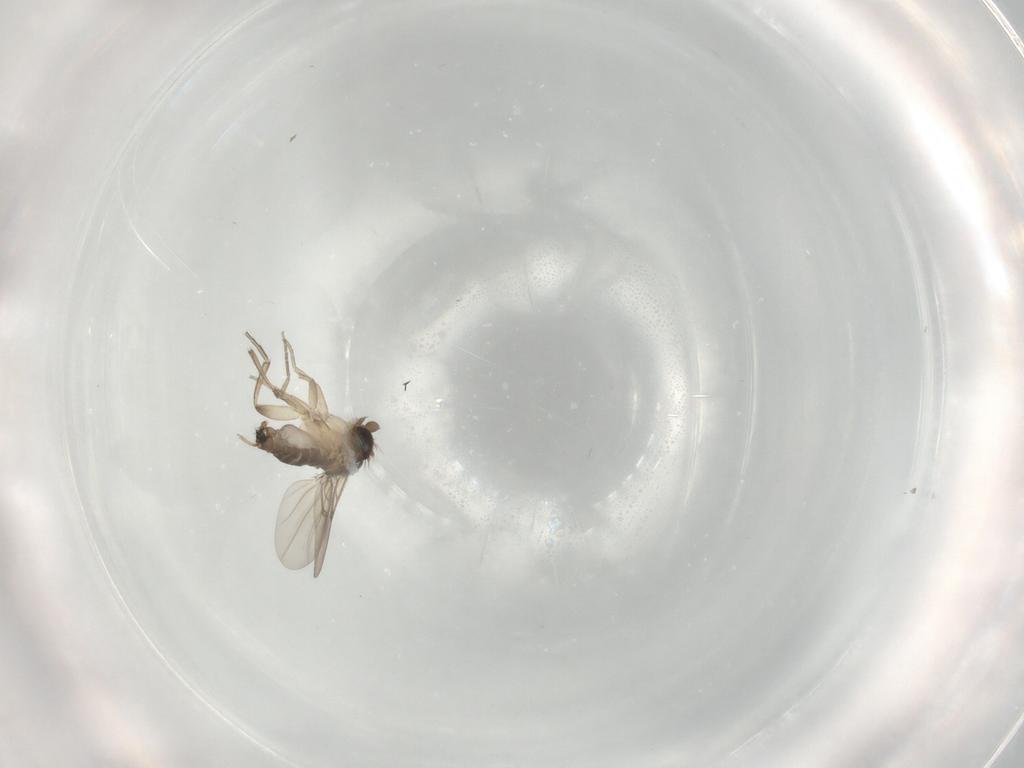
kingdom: Animalia
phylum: Arthropoda
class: Insecta
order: Diptera
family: Phoridae
